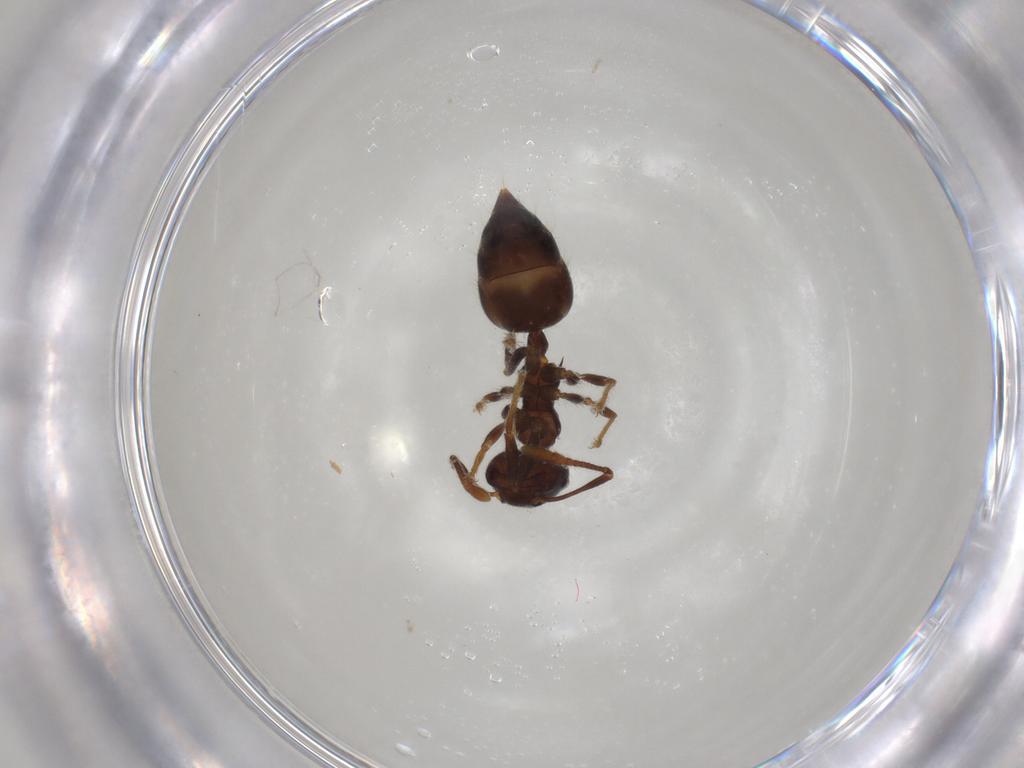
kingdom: Animalia
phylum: Arthropoda
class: Insecta
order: Hymenoptera
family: Formicidae
